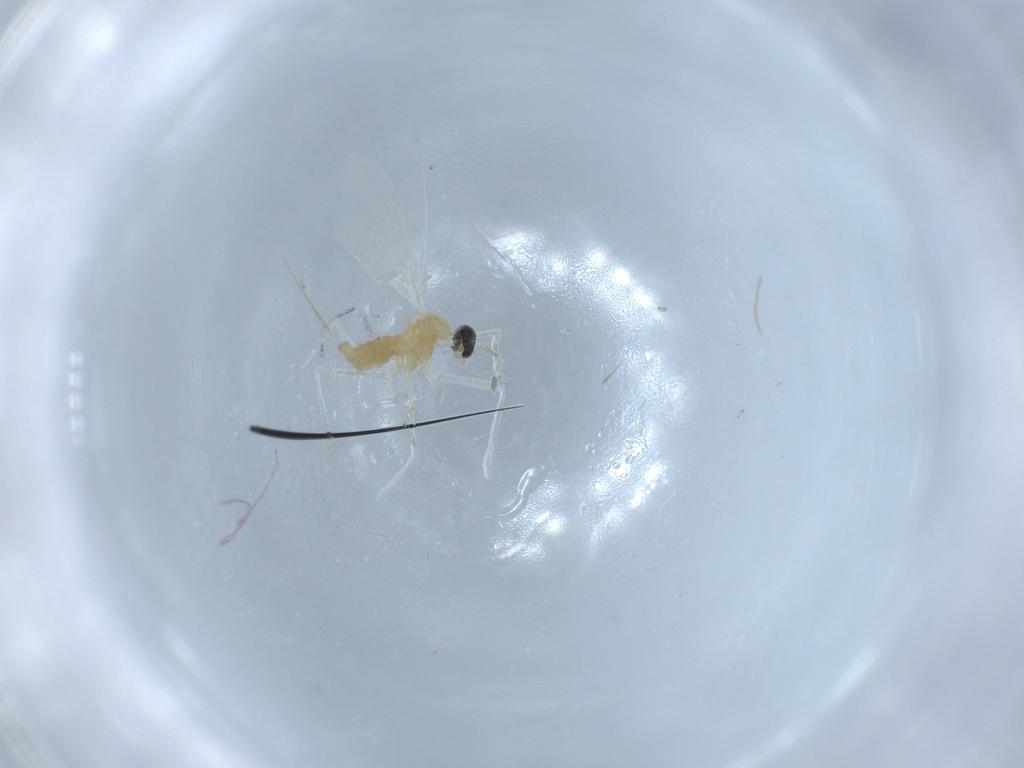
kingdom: Animalia
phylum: Arthropoda
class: Insecta
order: Diptera
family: Cecidomyiidae
